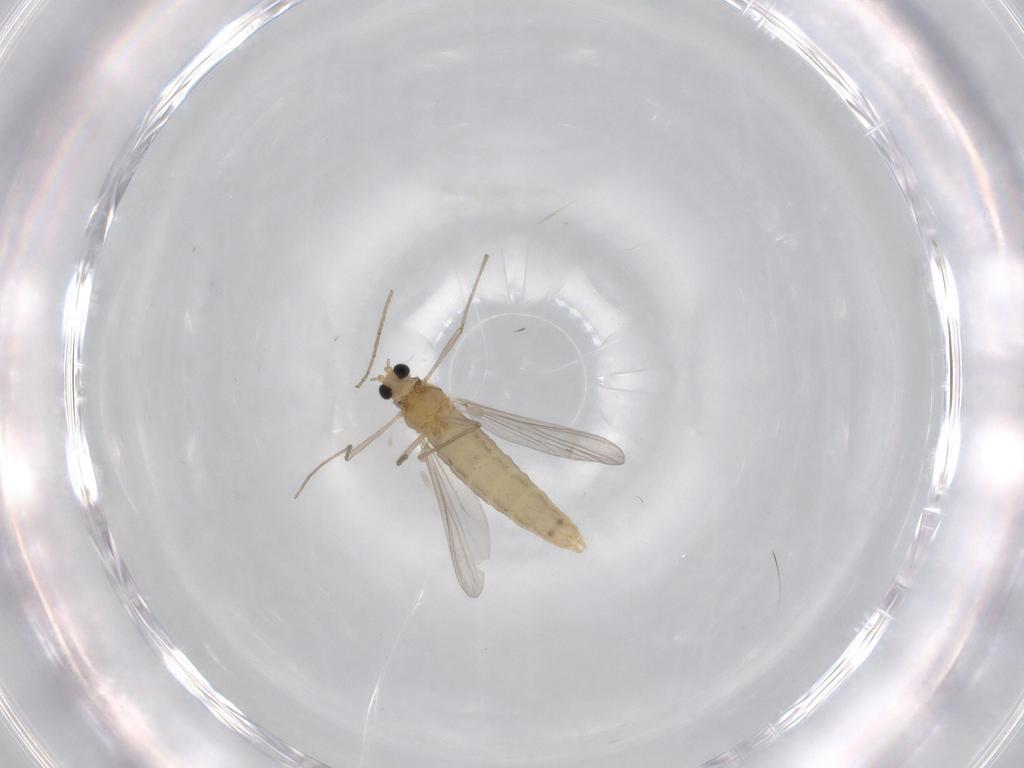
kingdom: Animalia
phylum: Arthropoda
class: Insecta
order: Diptera
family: Chironomidae
